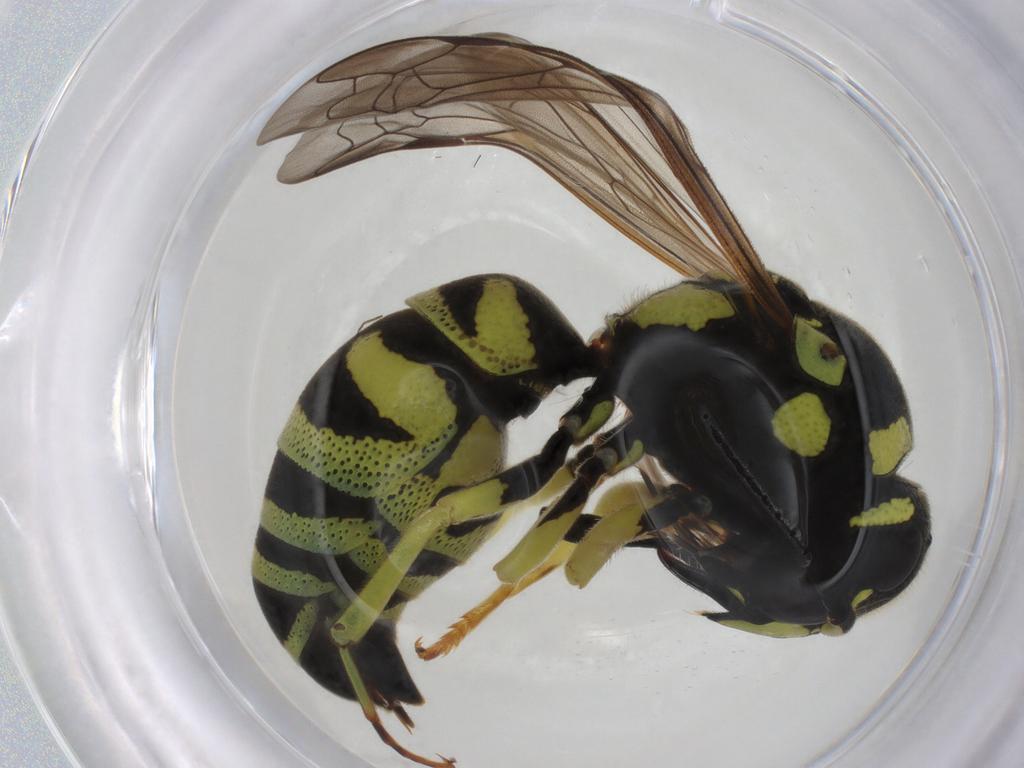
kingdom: Animalia
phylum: Arthropoda
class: Insecta
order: Hymenoptera
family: Vespidae
